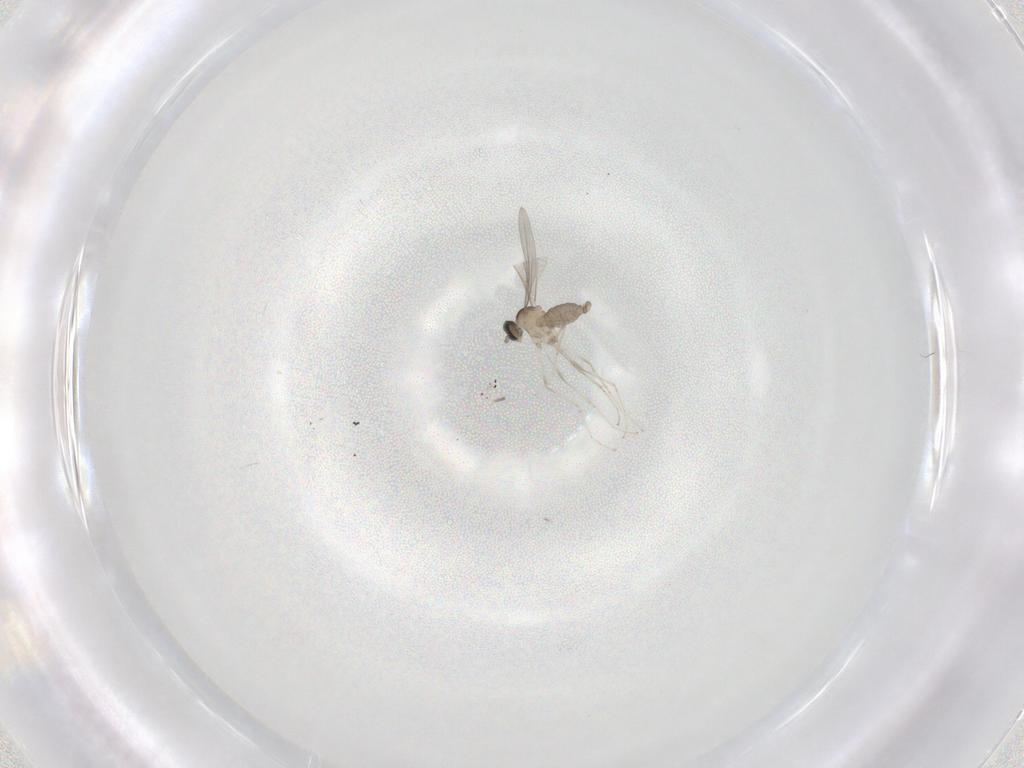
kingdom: Animalia
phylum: Arthropoda
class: Insecta
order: Diptera
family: Cecidomyiidae
